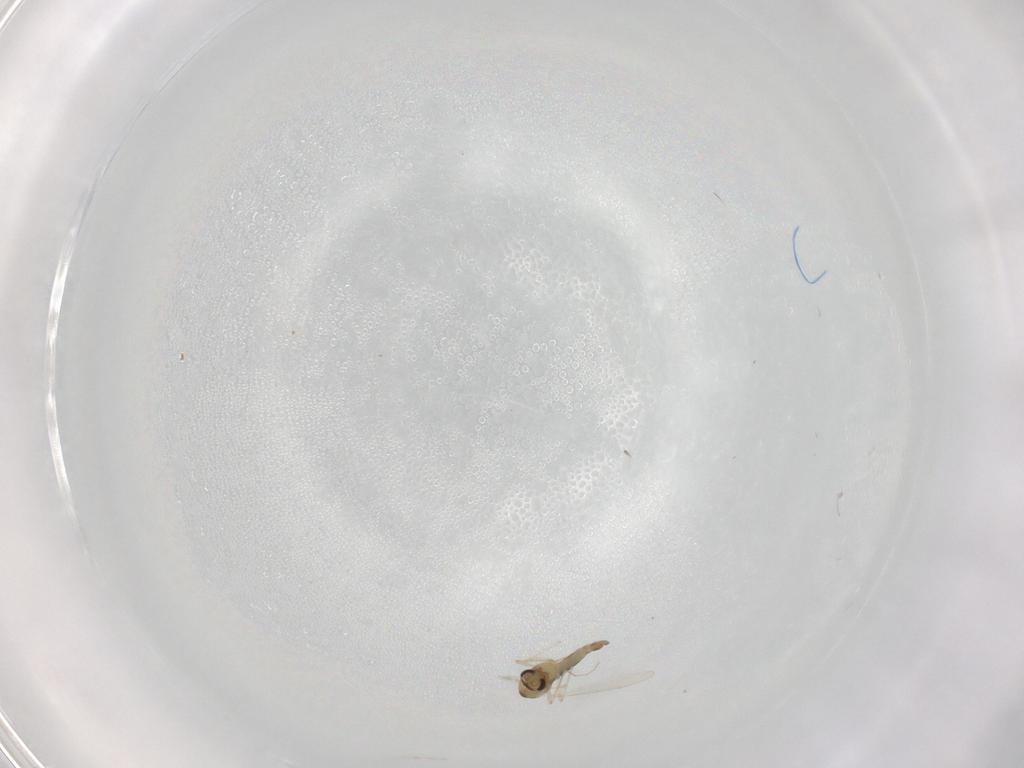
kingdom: Animalia
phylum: Arthropoda
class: Insecta
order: Diptera
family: Chironomidae
